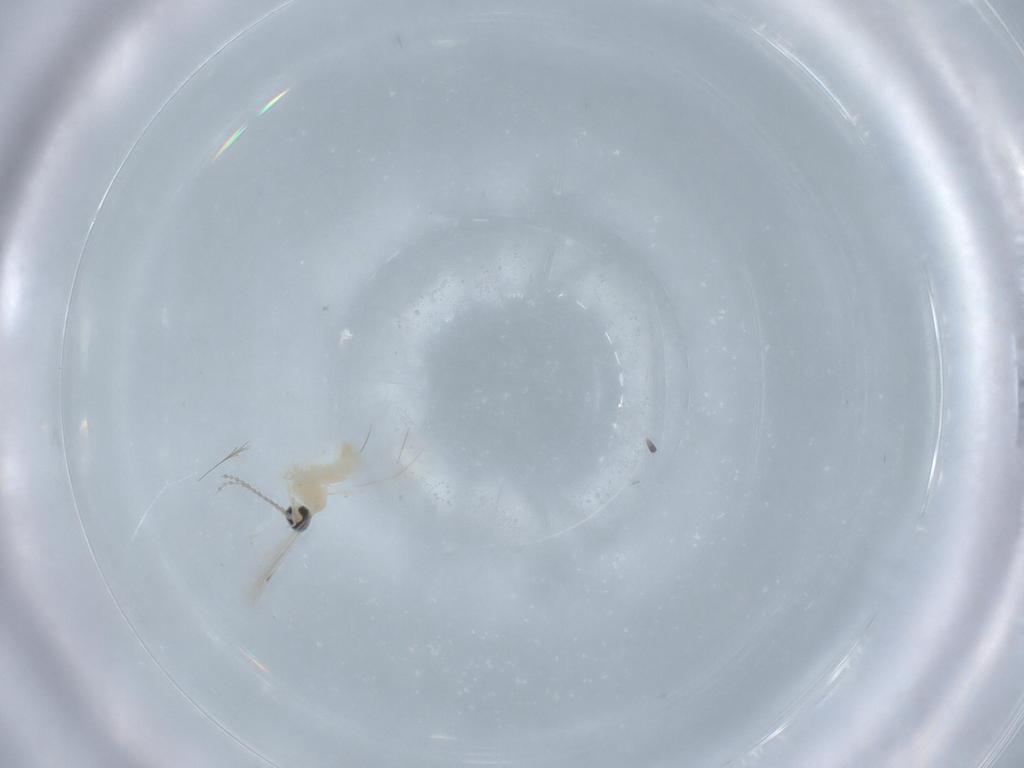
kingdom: Animalia
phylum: Arthropoda
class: Insecta
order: Diptera
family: Cecidomyiidae
